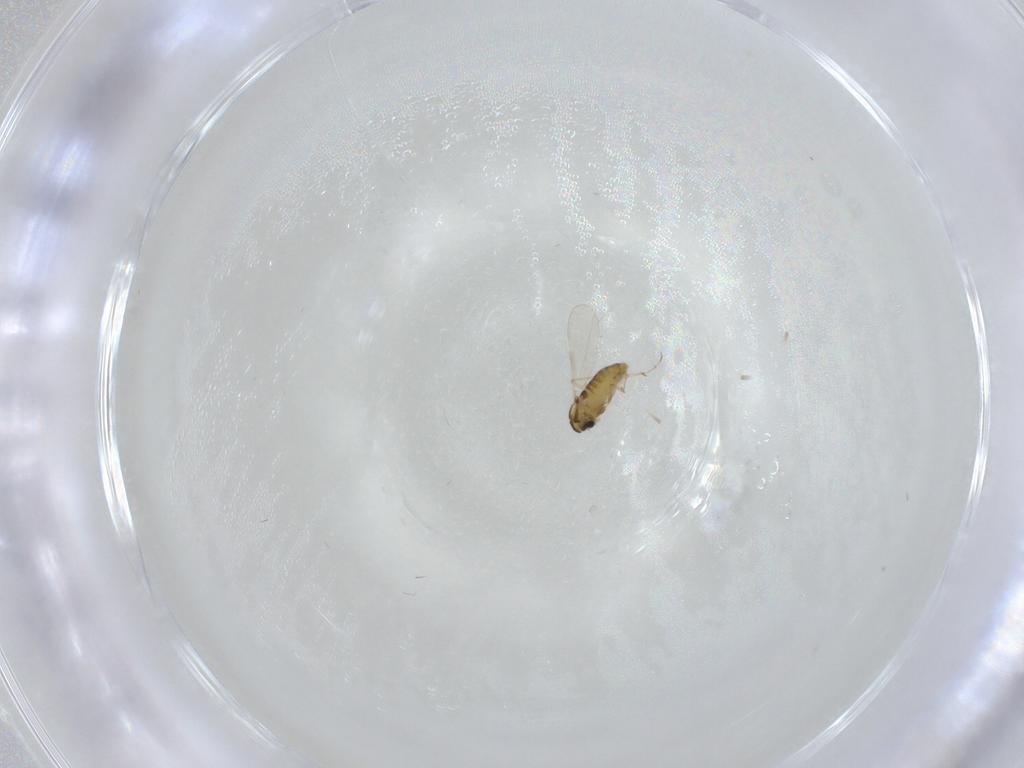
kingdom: Animalia
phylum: Arthropoda
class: Insecta
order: Diptera
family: Chironomidae
